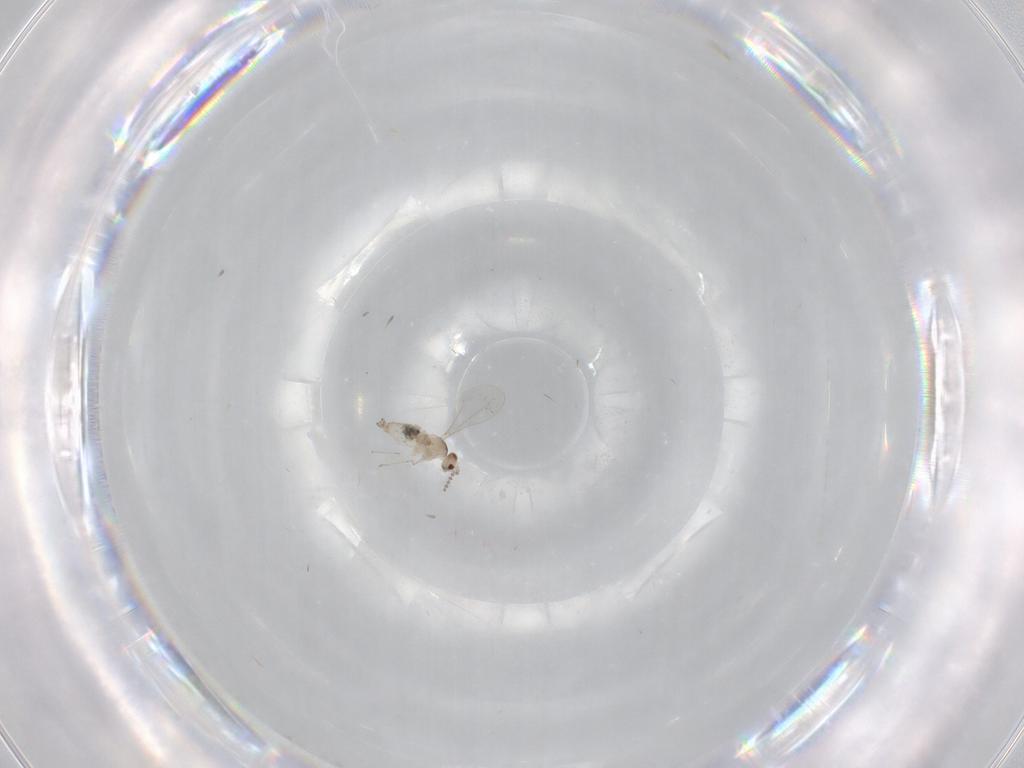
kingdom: Animalia
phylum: Arthropoda
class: Insecta
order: Diptera
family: Cecidomyiidae
